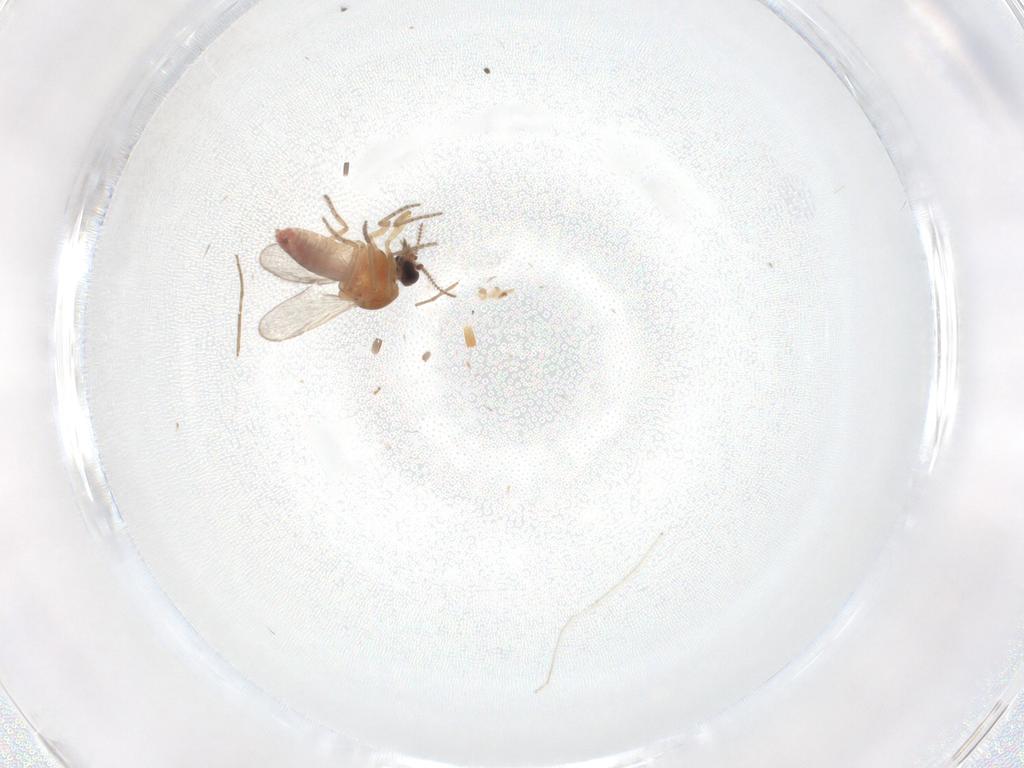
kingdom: Animalia
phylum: Arthropoda
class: Insecta
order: Diptera
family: Ceratopogonidae
